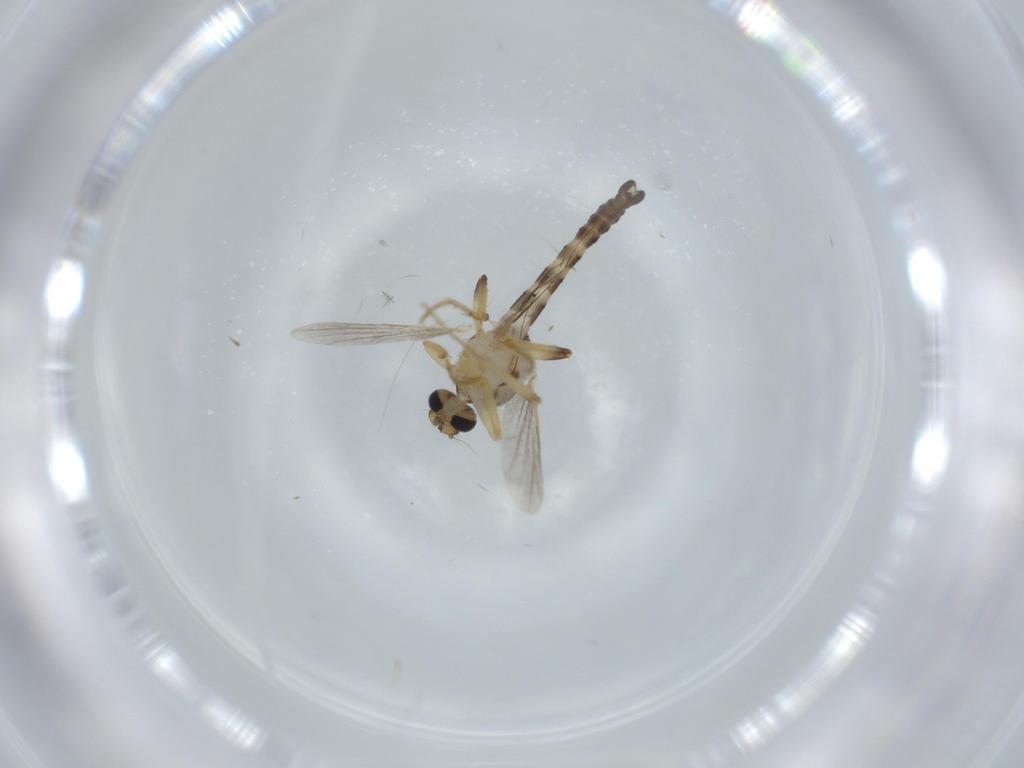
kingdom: Animalia
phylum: Arthropoda
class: Insecta
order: Diptera
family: Ceratopogonidae
